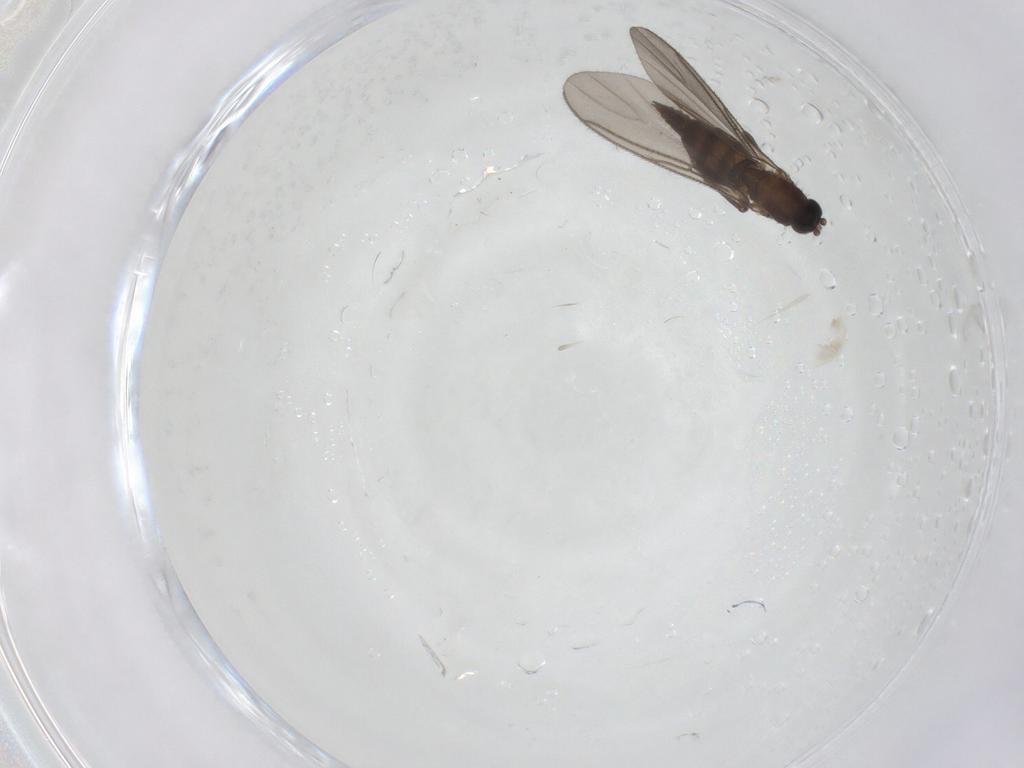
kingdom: Animalia
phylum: Arthropoda
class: Insecta
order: Diptera
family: Sciaridae
